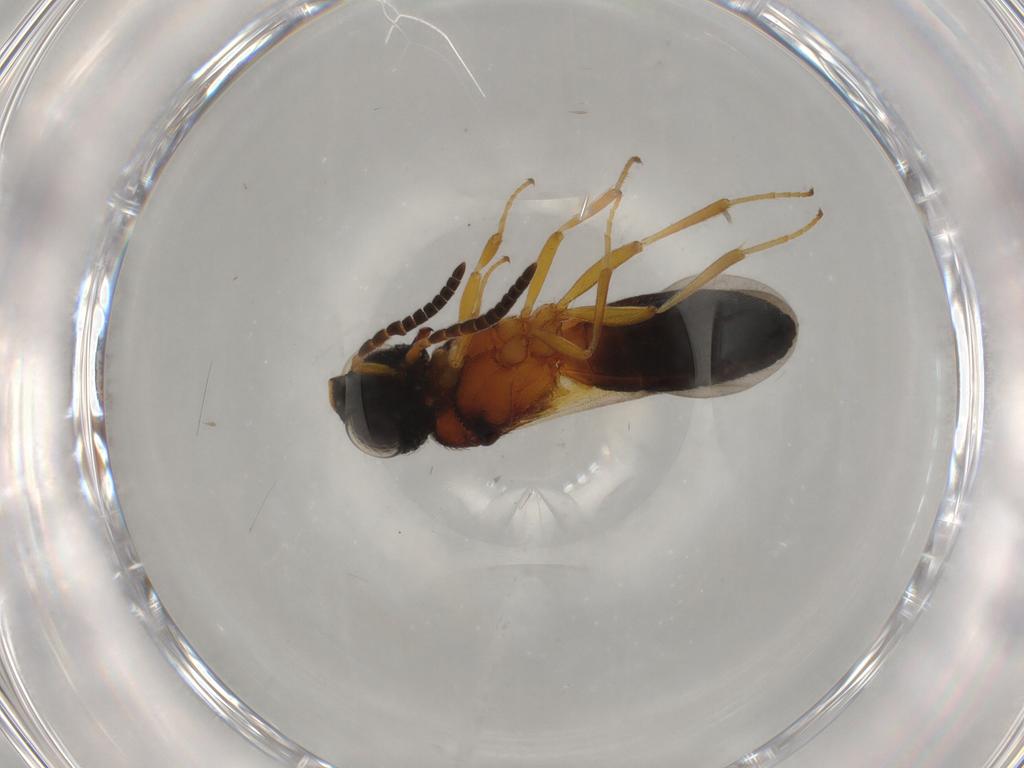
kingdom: Animalia
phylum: Arthropoda
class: Insecta
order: Hymenoptera
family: Scelionidae
